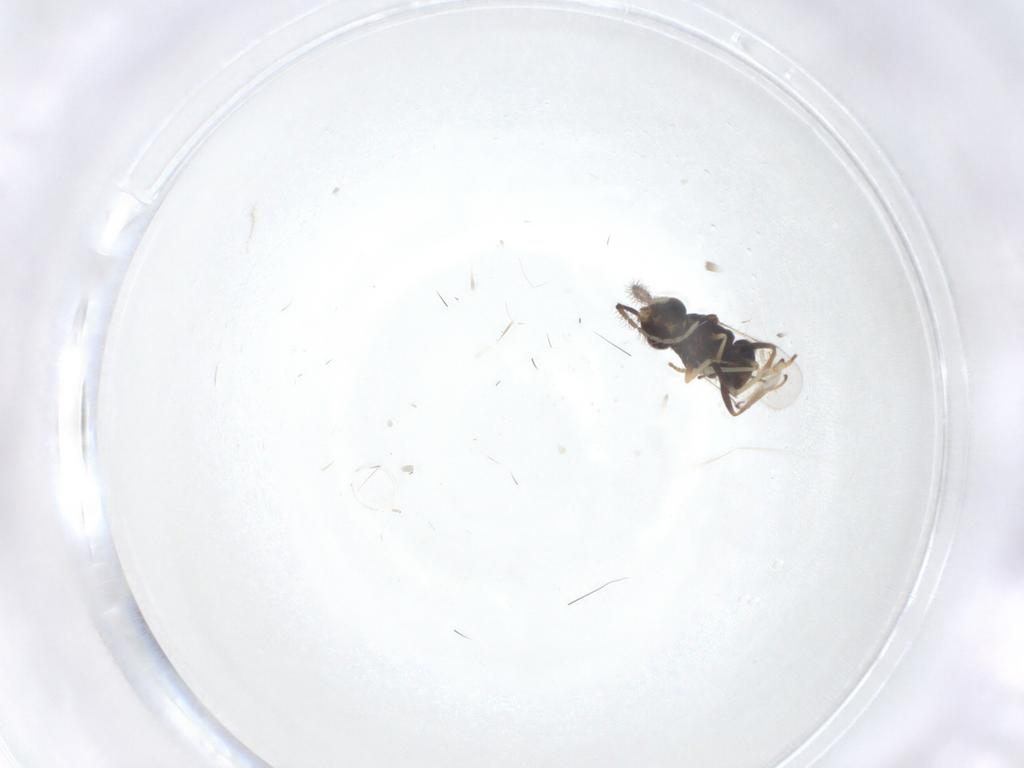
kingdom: Animalia
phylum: Arthropoda
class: Insecta
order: Hymenoptera
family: Encyrtidae
